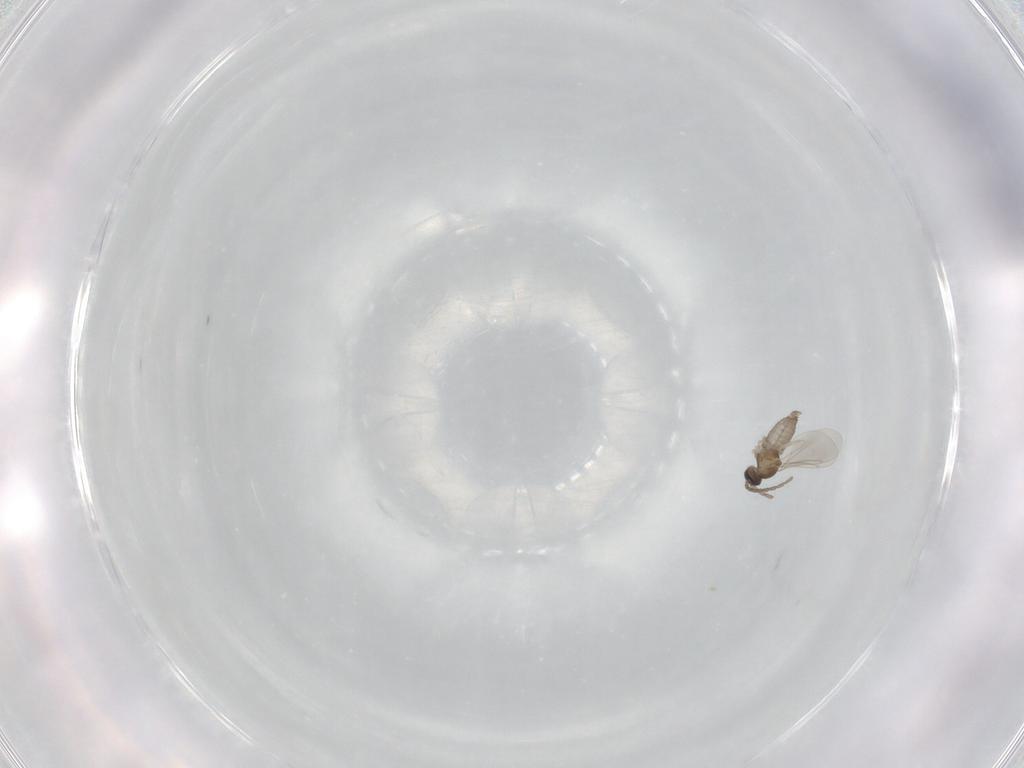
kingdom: Animalia
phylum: Arthropoda
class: Insecta
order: Diptera
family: Cecidomyiidae
